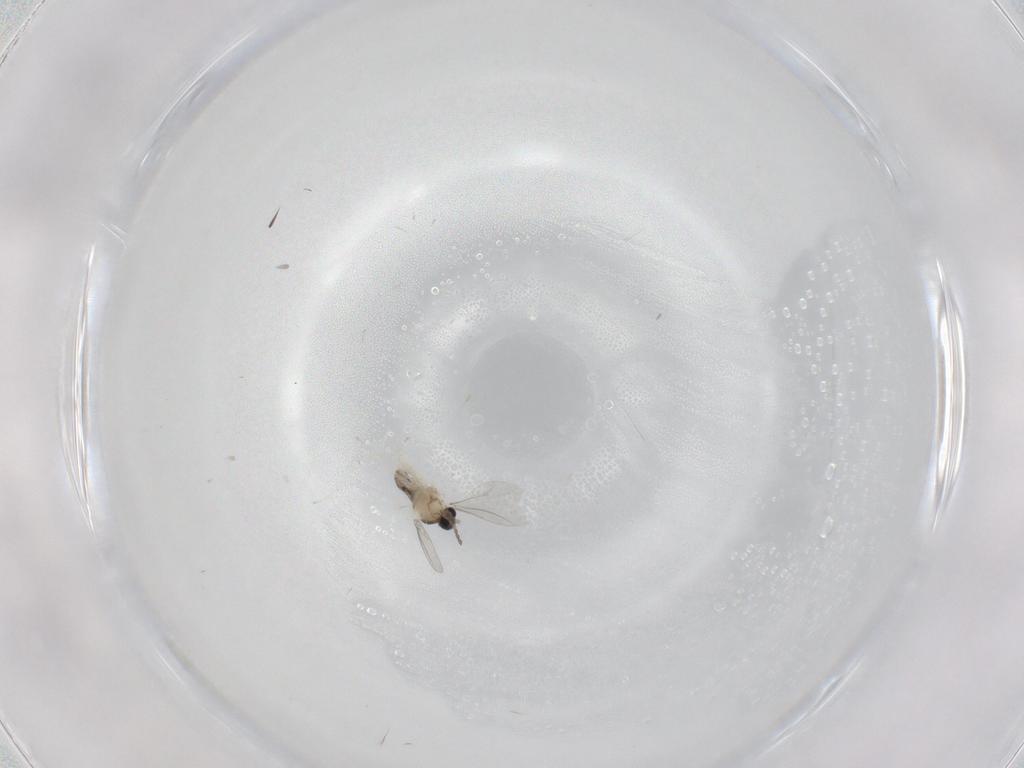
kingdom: Animalia
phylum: Arthropoda
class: Insecta
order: Diptera
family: Cecidomyiidae
